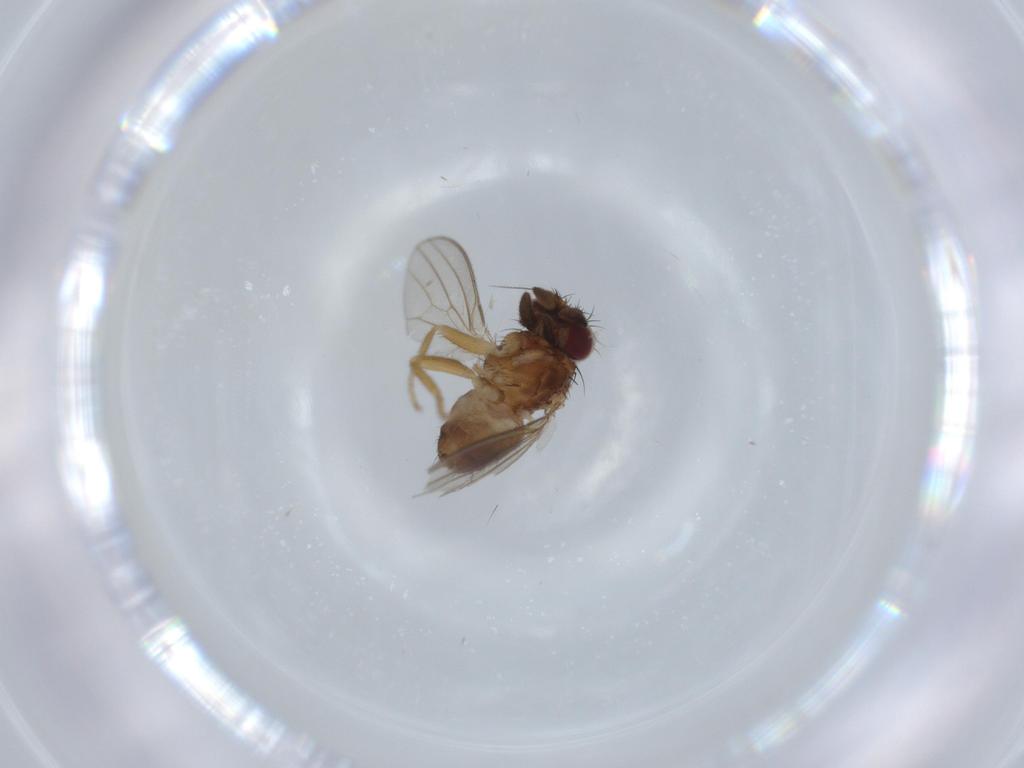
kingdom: Animalia
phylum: Arthropoda
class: Insecta
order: Diptera
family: Milichiidae
